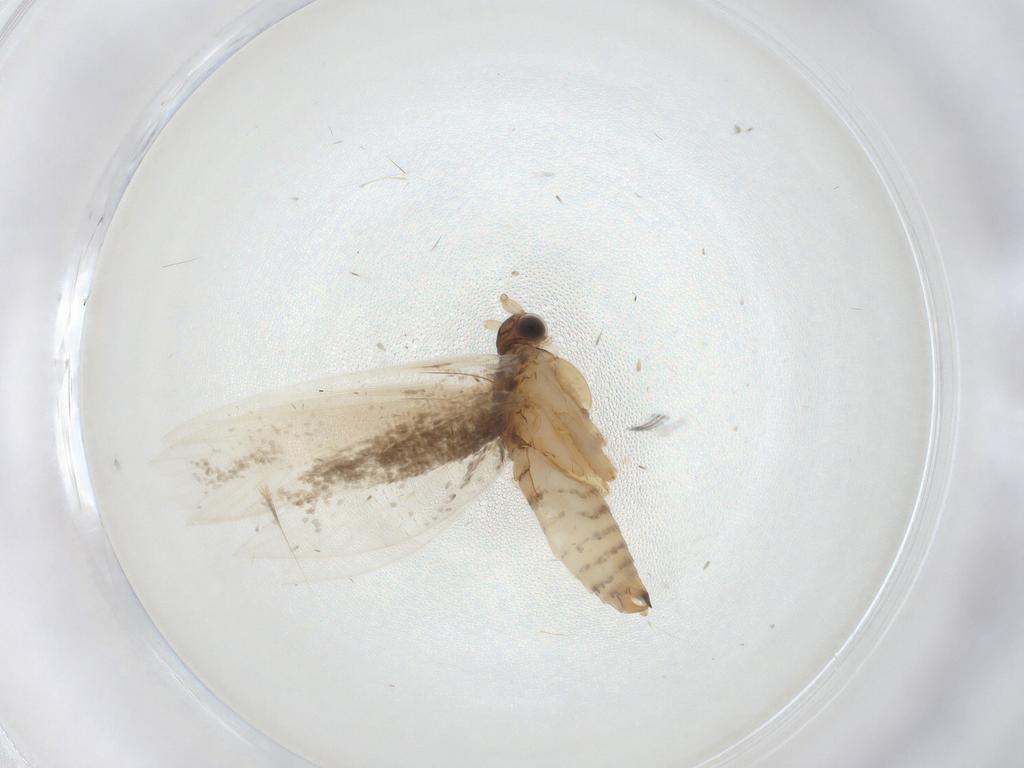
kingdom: Animalia
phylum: Arthropoda
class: Insecta
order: Lepidoptera
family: Tineidae
